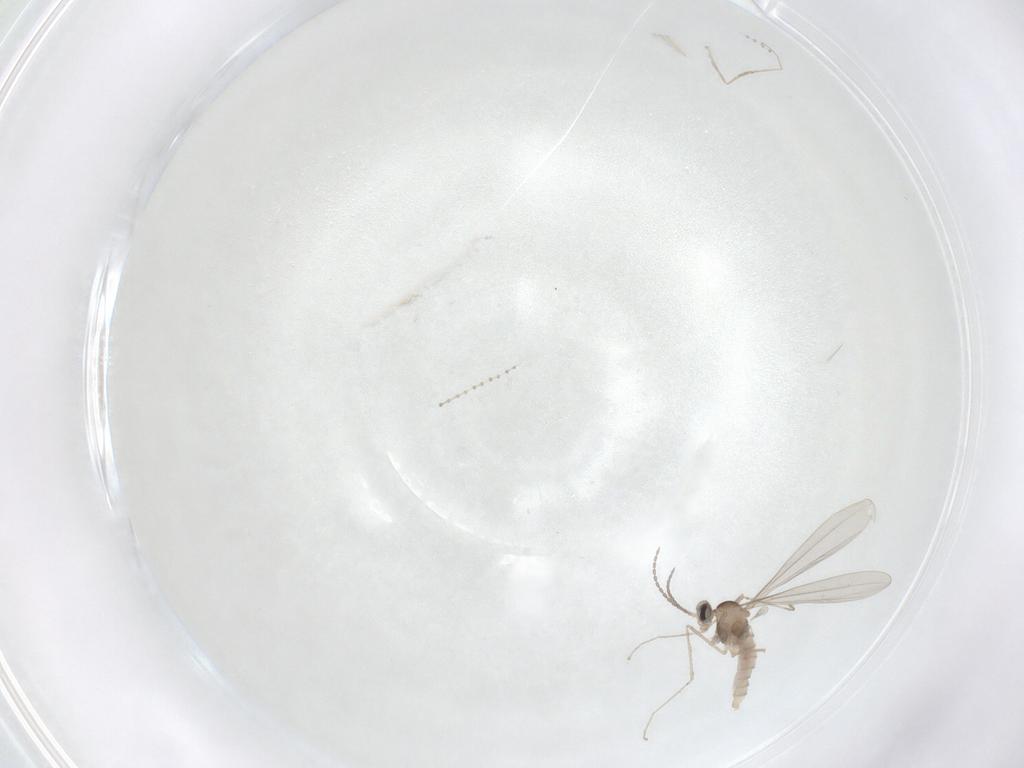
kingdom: Animalia
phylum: Arthropoda
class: Insecta
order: Diptera
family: Cecidomyiidae
